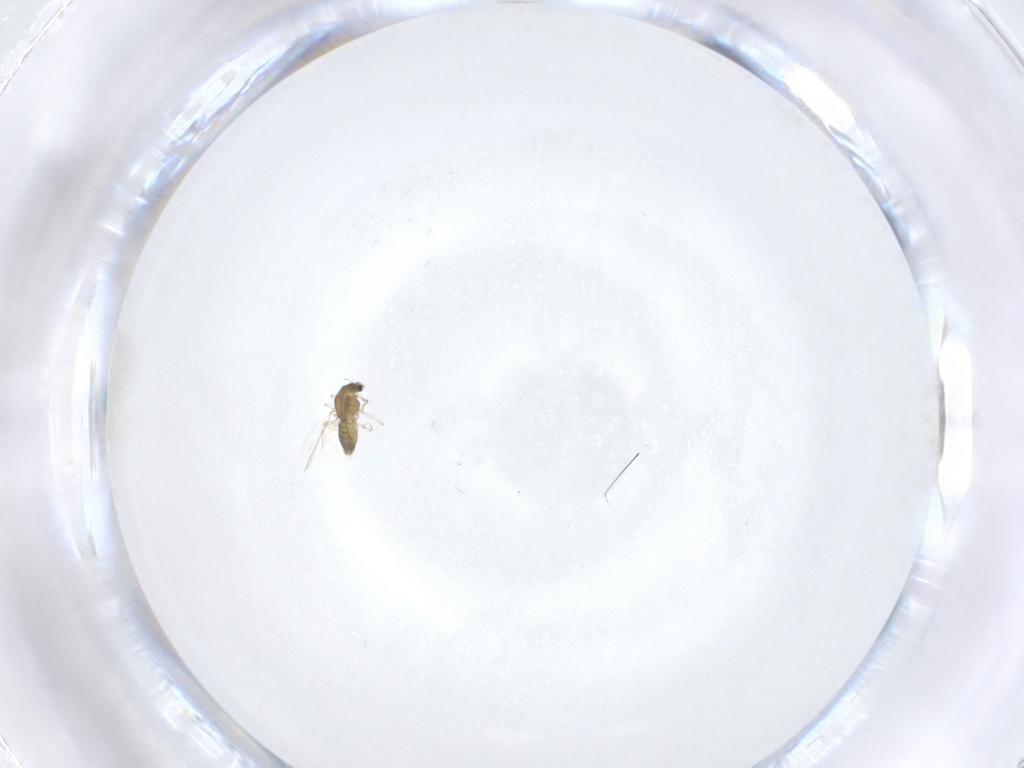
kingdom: Animalia
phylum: Arthropoda
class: Insecta
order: Diptera
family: Chironomidae
